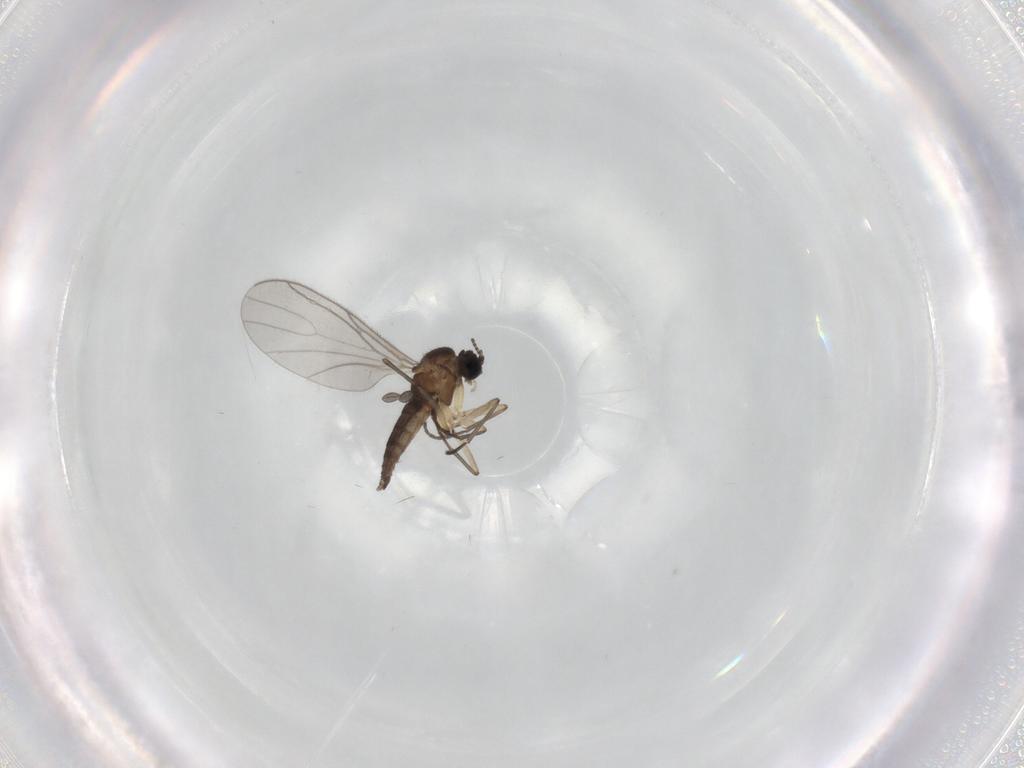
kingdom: Animalia
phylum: Arthropoda
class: Insecta
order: Diptera
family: Sciaridae
